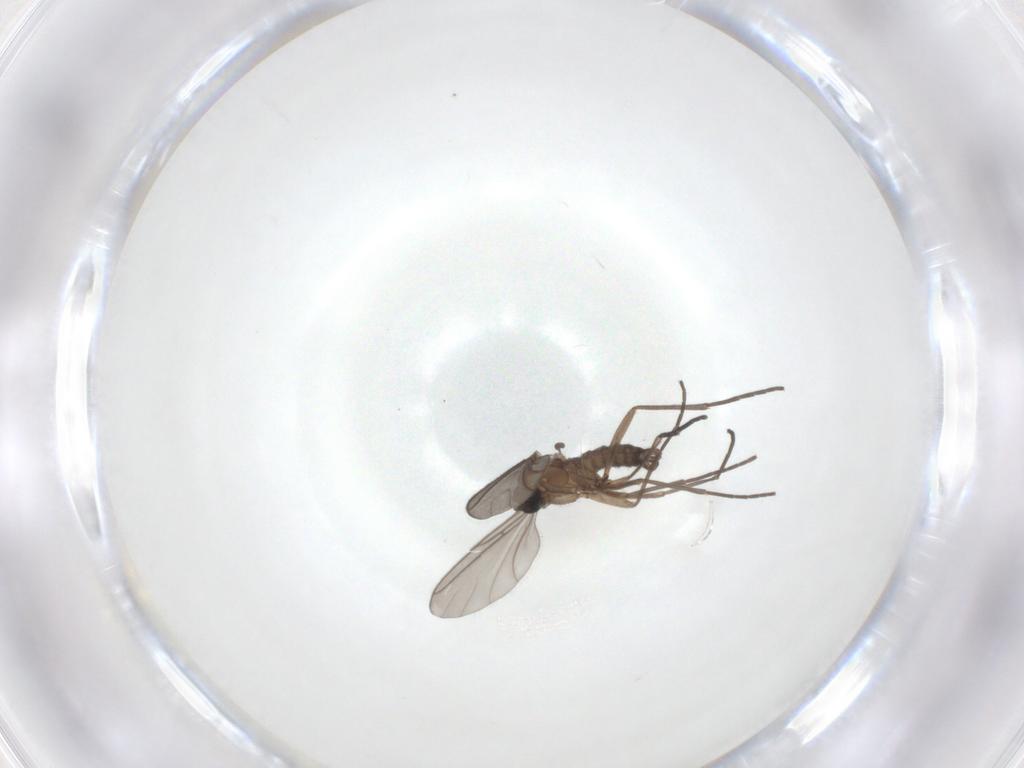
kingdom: Animalia
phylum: Arthropoda
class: Insecta
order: Diptera
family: Sciaridae
